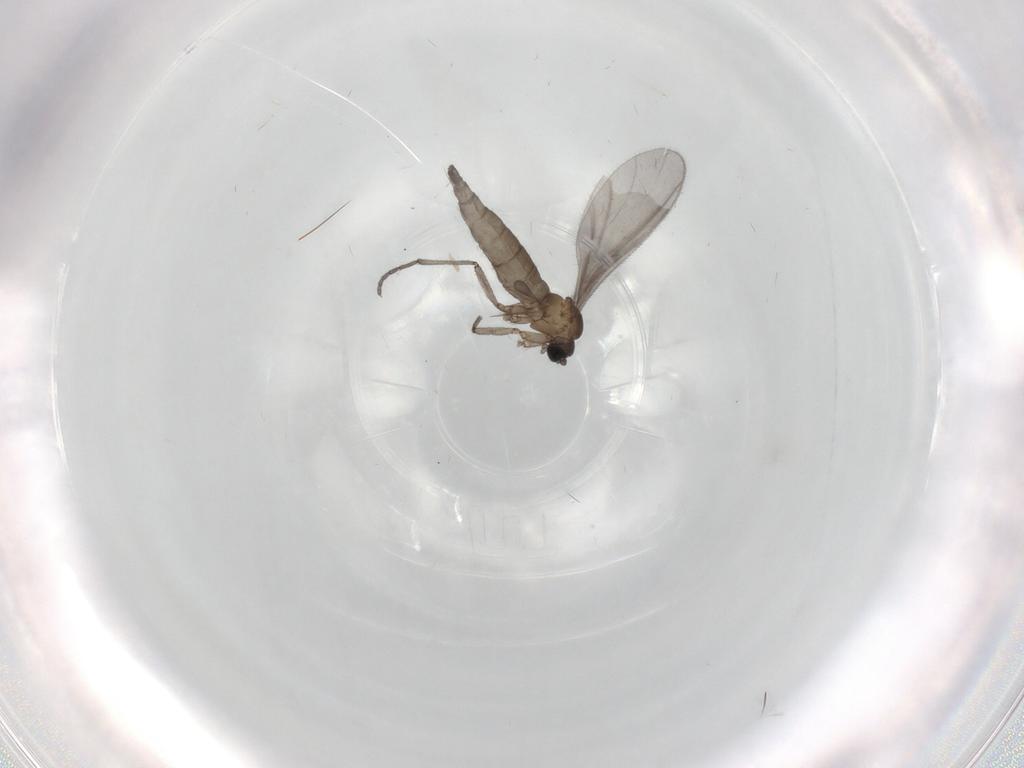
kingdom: Animalia
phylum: Arthropoda
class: Insecta
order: Diptera
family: Sciaridae
